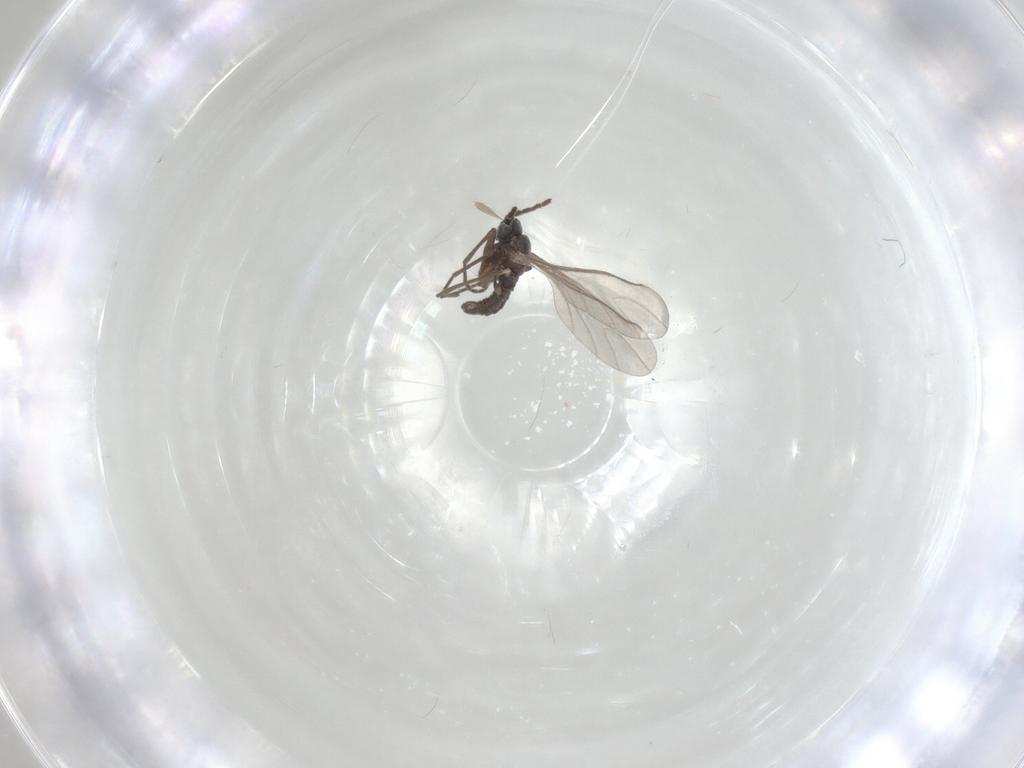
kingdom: Animalia
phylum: Arthropoda
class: Insecta
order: Diptera
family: Sciaridae
